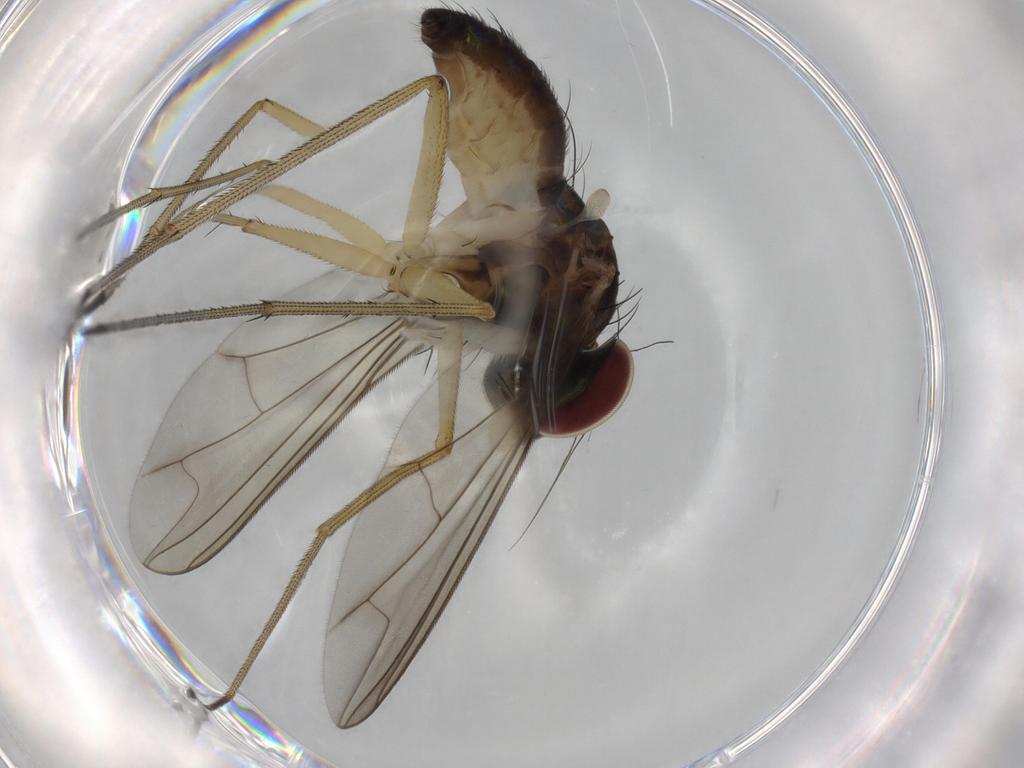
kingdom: Animalia
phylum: Arthropoda
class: Insecta
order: Diptera
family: Dolichopodidae
